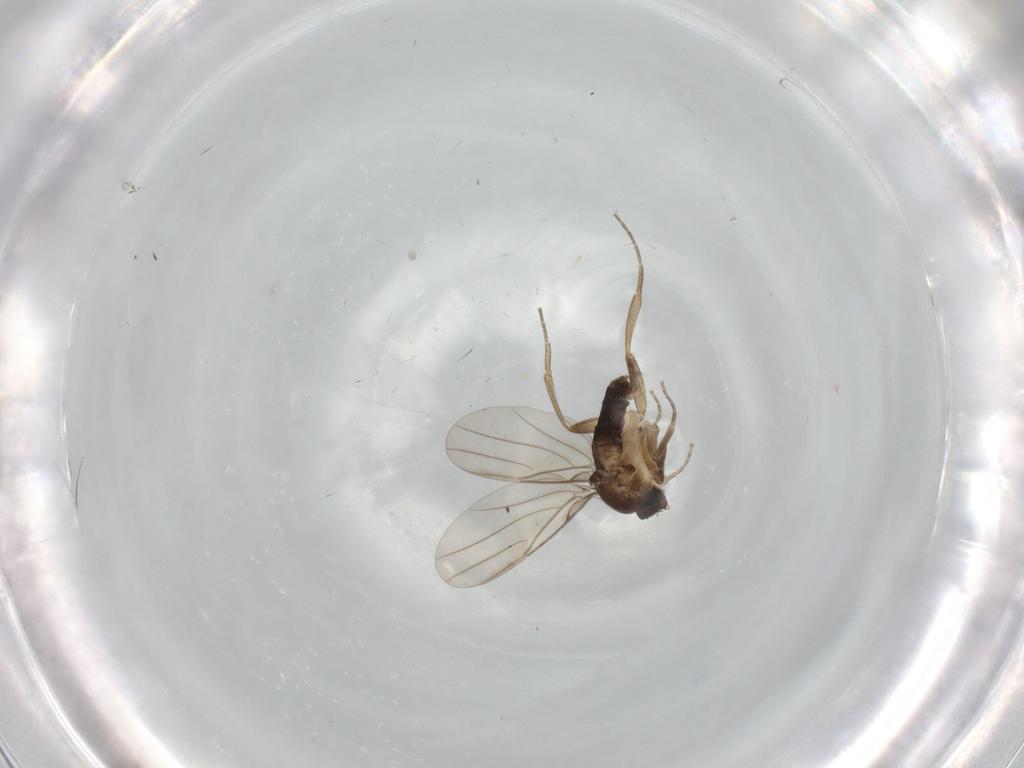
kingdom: Animalia
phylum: Arthropoda
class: Insecta
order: Diptera
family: Phoridae
